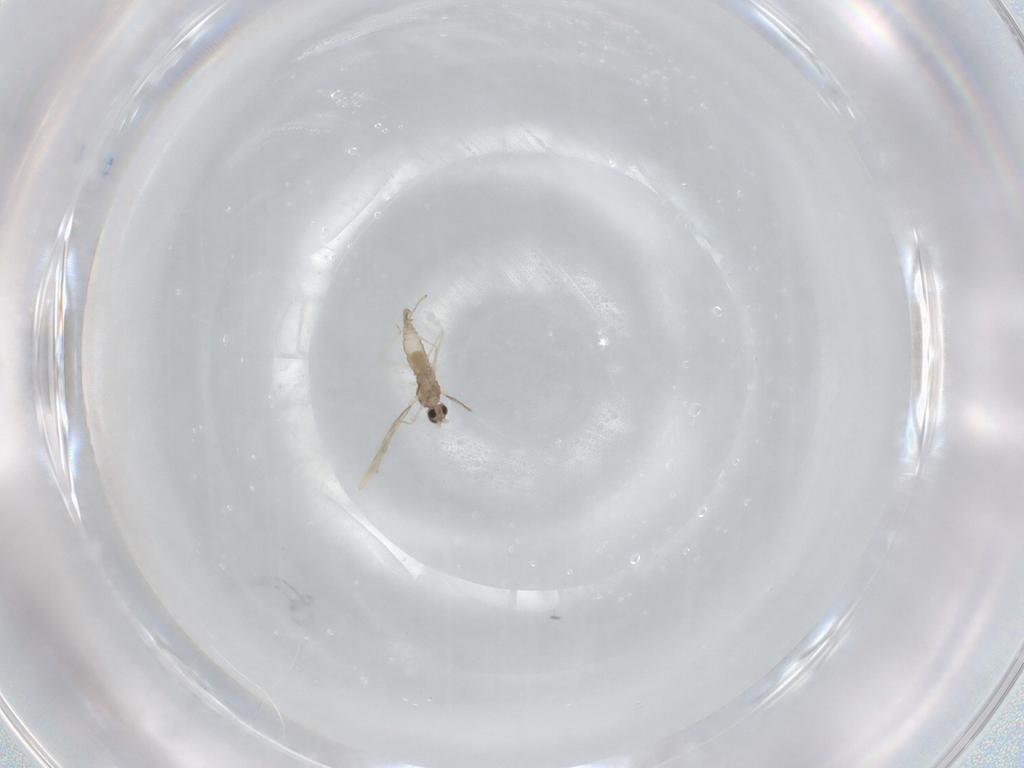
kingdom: Animalia
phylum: Arthropoda
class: Insecta
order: Diptera
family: Cecidomyiidae
